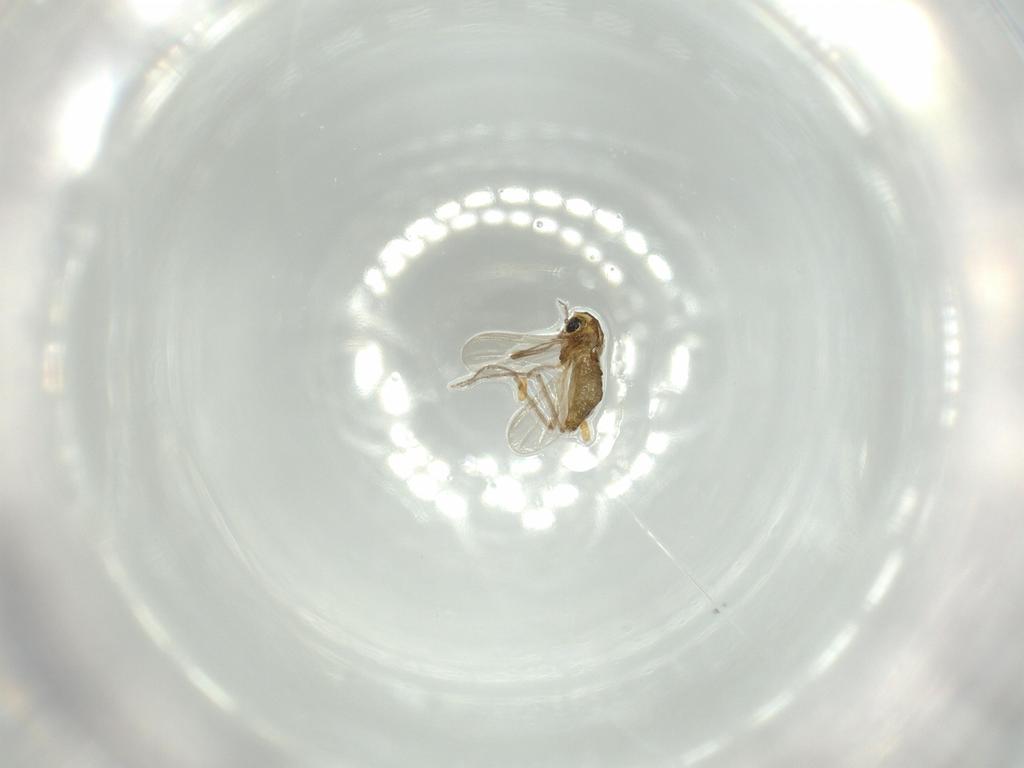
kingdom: Animalia
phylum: Arthropoda
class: Insecta
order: Diptera
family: Chironomidae
